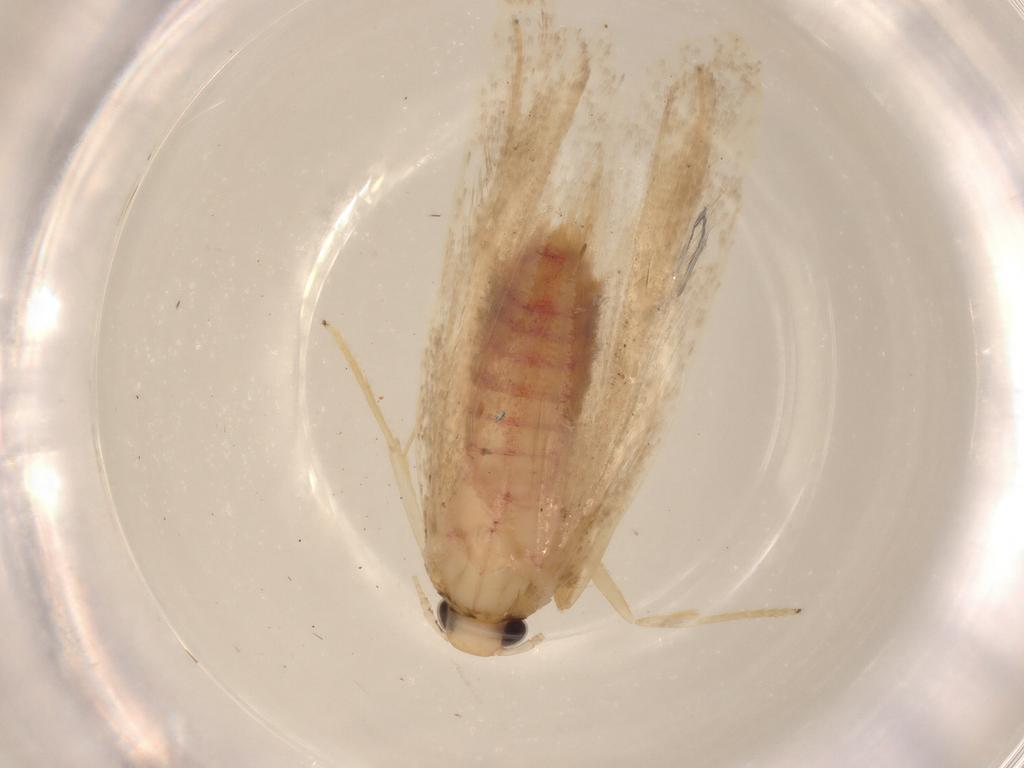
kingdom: Animalia
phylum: Arthropoda
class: Insecta
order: Lepidoptera
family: Lecithoceridae
